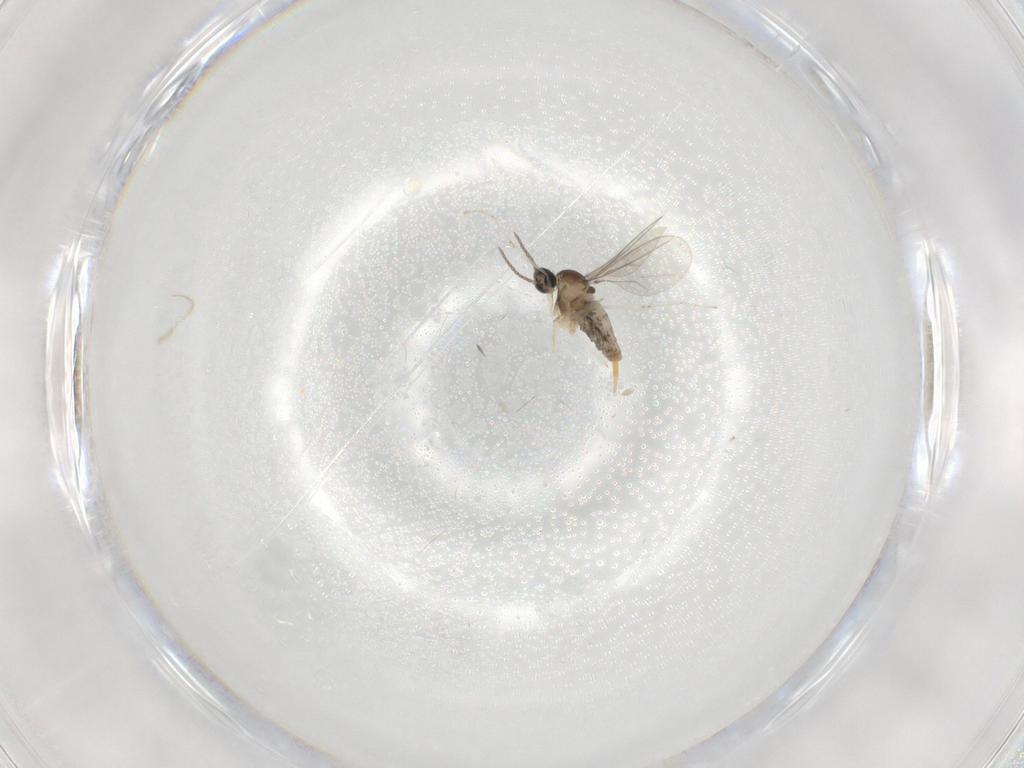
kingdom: Animalia
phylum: Arthropoda
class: Insecta
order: Diptera
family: Cecidomyiidae
